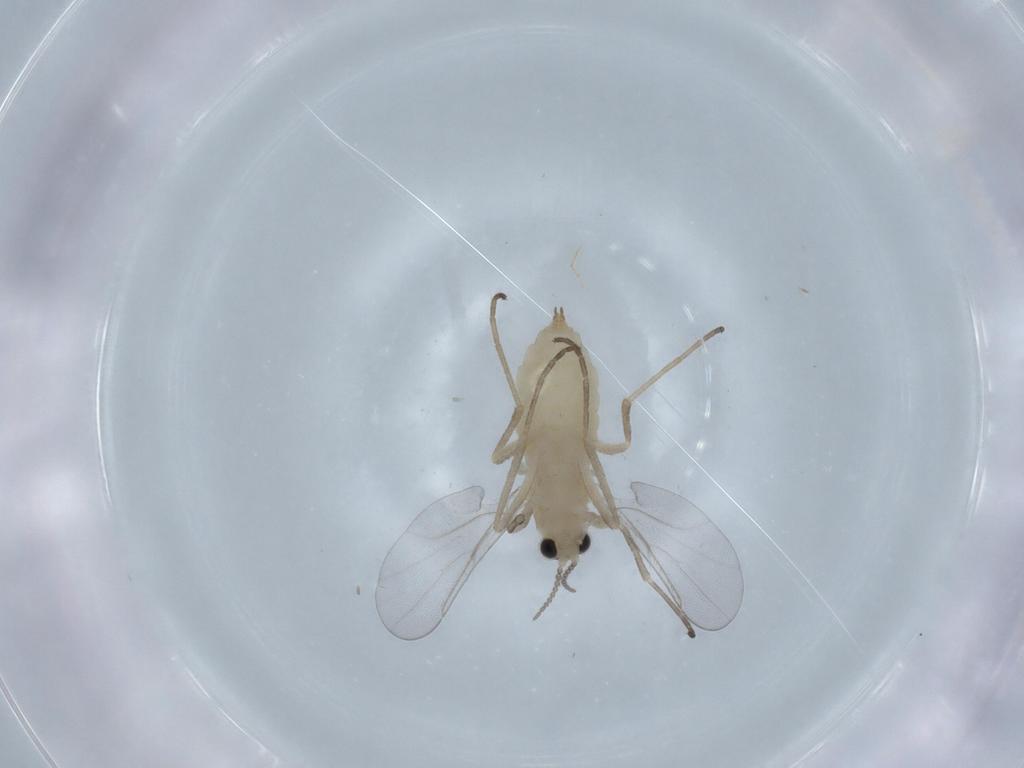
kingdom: Animalia
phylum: Arthropoda
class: Insecta
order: Diptera
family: Cecidomyiidae
